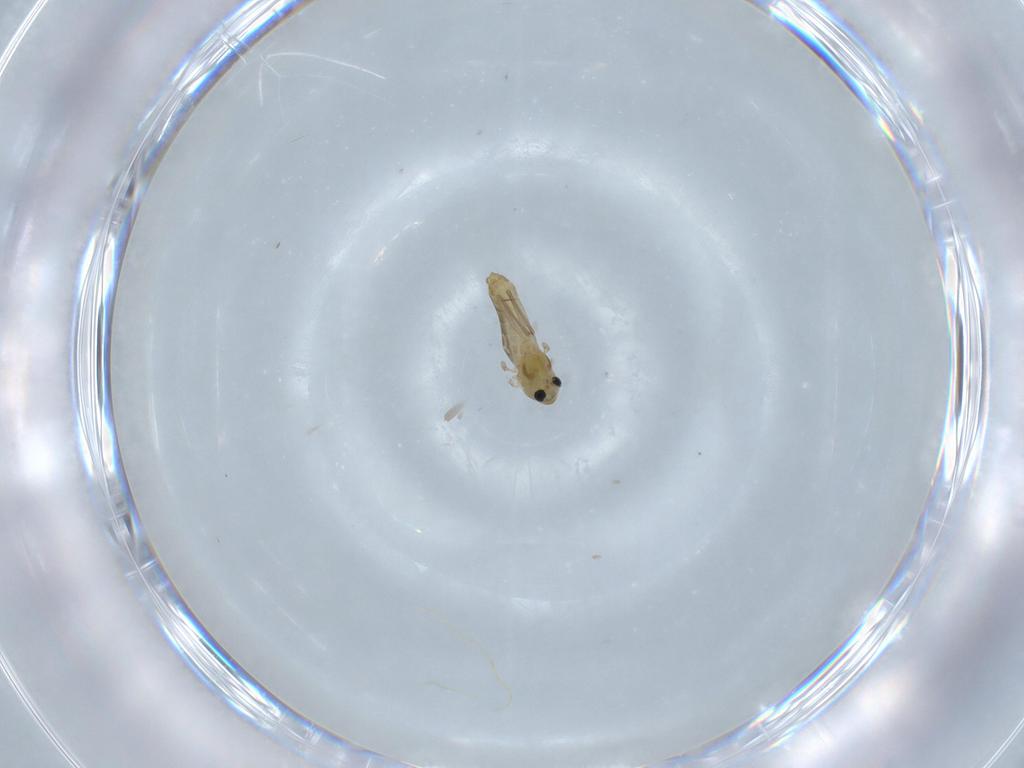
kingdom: Animalia
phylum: Arthropoda
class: Insecta
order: Diptera
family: Chironomidae
